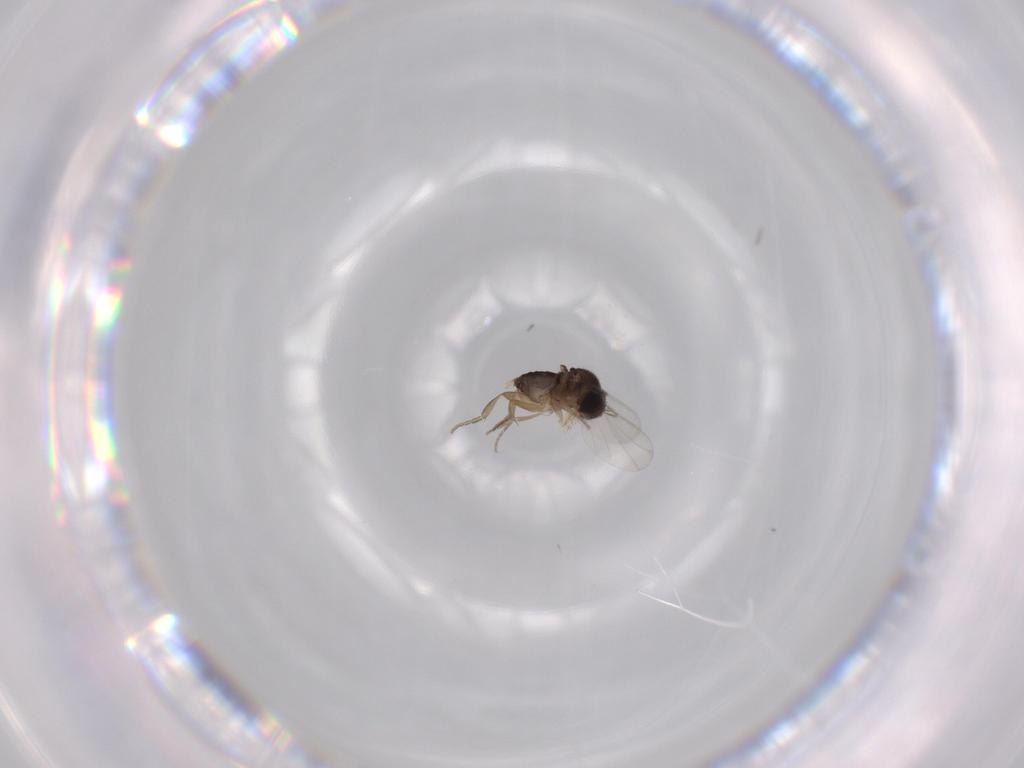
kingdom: Animalia
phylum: Arthropoda
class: Insecta
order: Diptera
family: Phoridae
